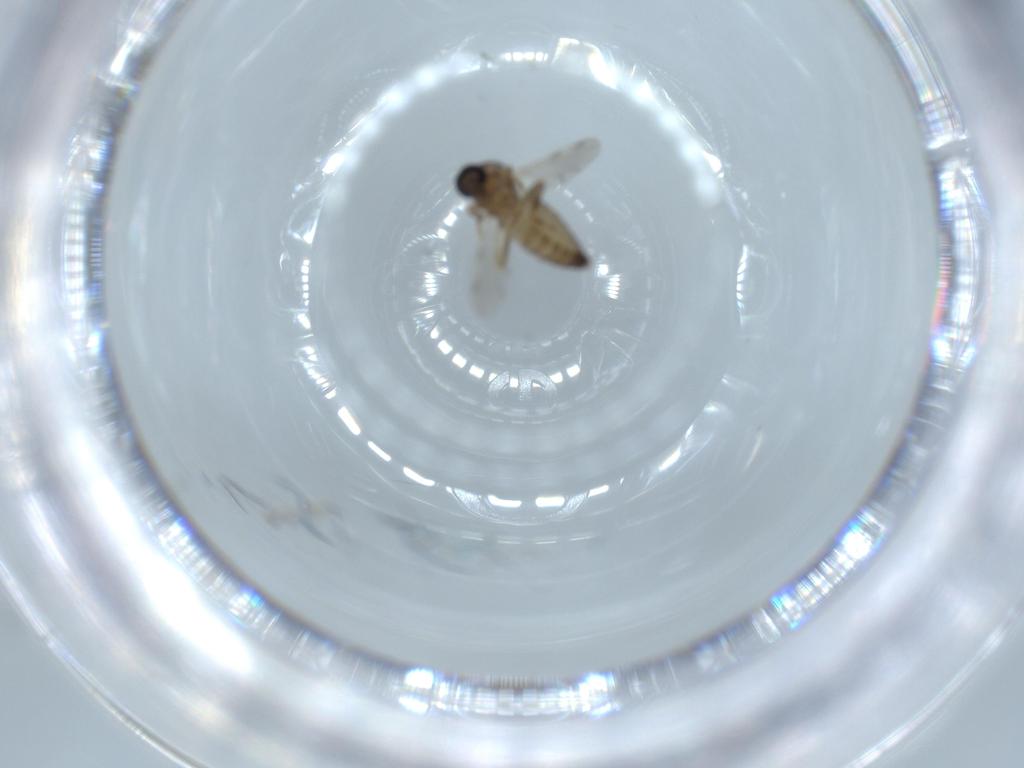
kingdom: Animalia
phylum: Arthropoda
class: Insecta
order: Diptera
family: Ceratopogonidae
